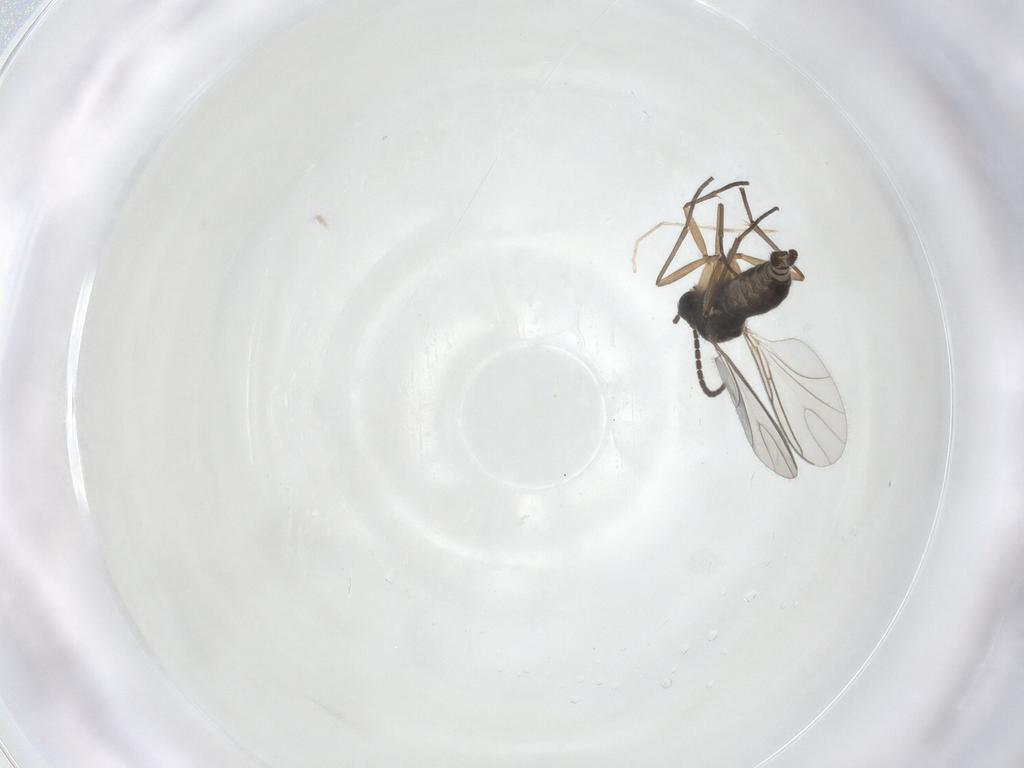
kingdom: Animalia
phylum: Arthropoda
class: Insecta
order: Diptera
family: Sciaridae
